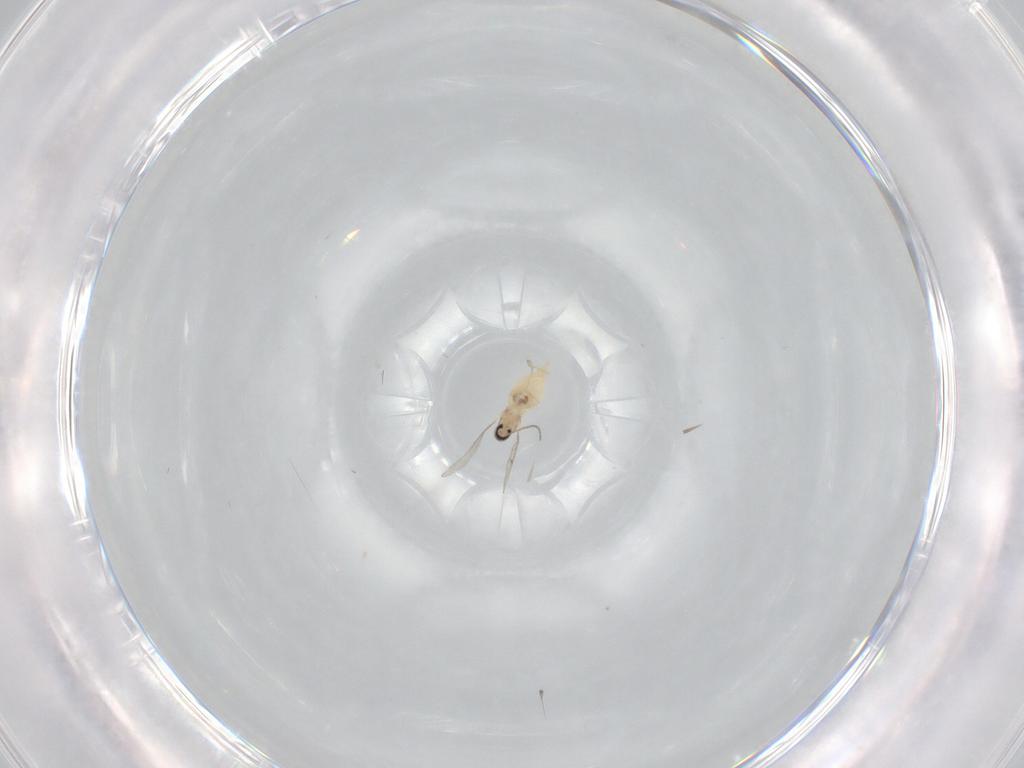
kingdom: Animalia
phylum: Arthropoda
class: Insecta
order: Diptera
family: Cecidomyiidae
